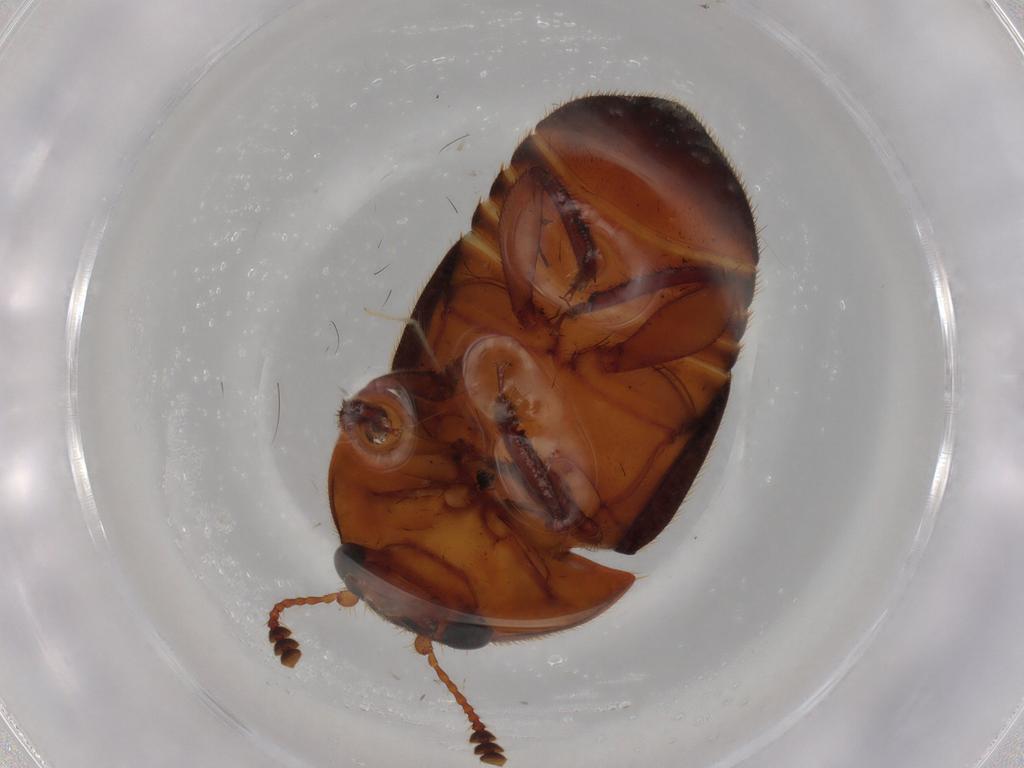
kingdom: Animalia
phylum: Arthropoda
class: Insecta
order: Coleoptera
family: Nitidulidae
